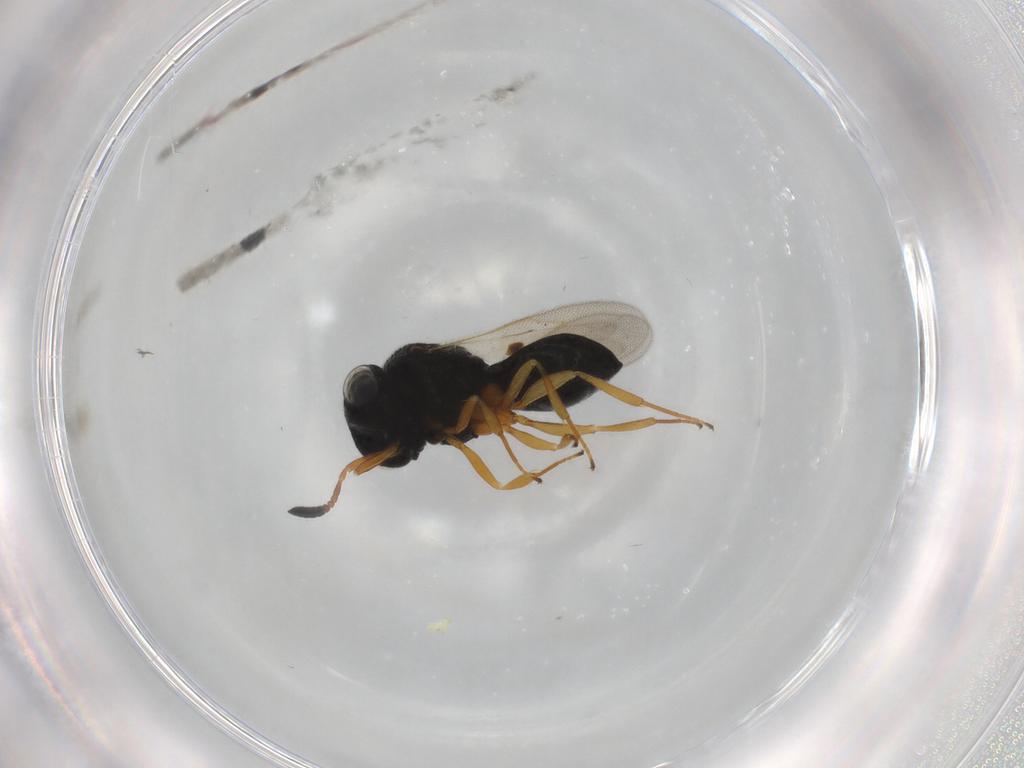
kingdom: Animalia
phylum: Arthropoda
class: Insecta
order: Hymenoptera
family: Scelionidae
